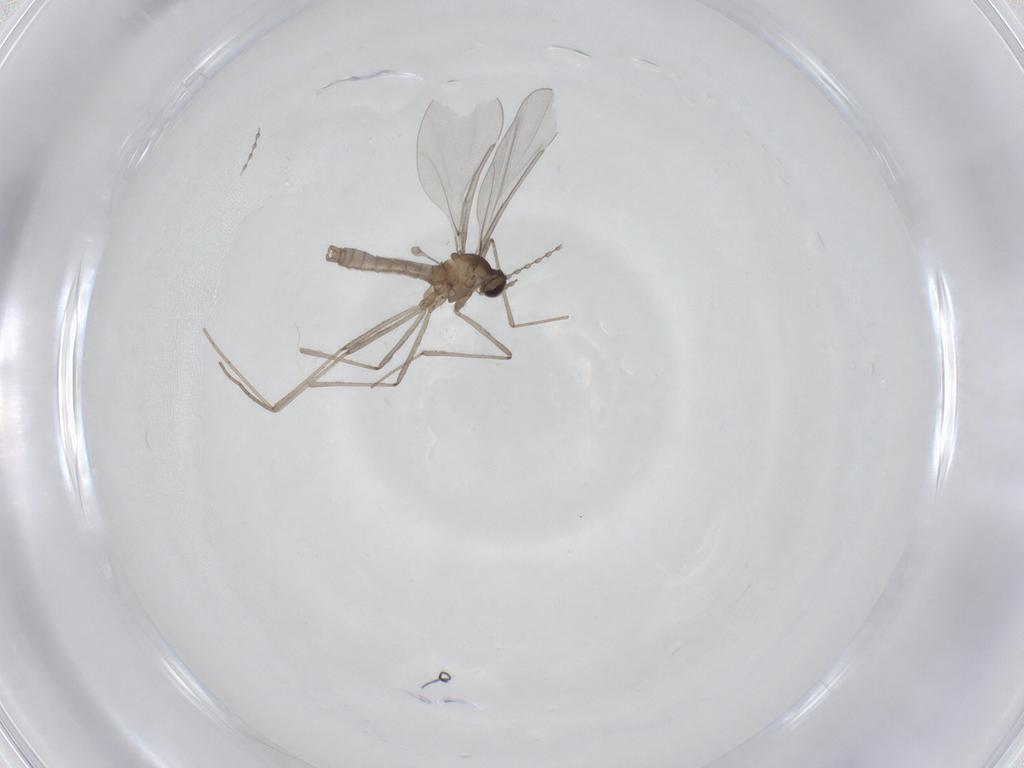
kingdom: Animalia
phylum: Arthropoda
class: Insecta
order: Diptera
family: Cecidomyiidae
